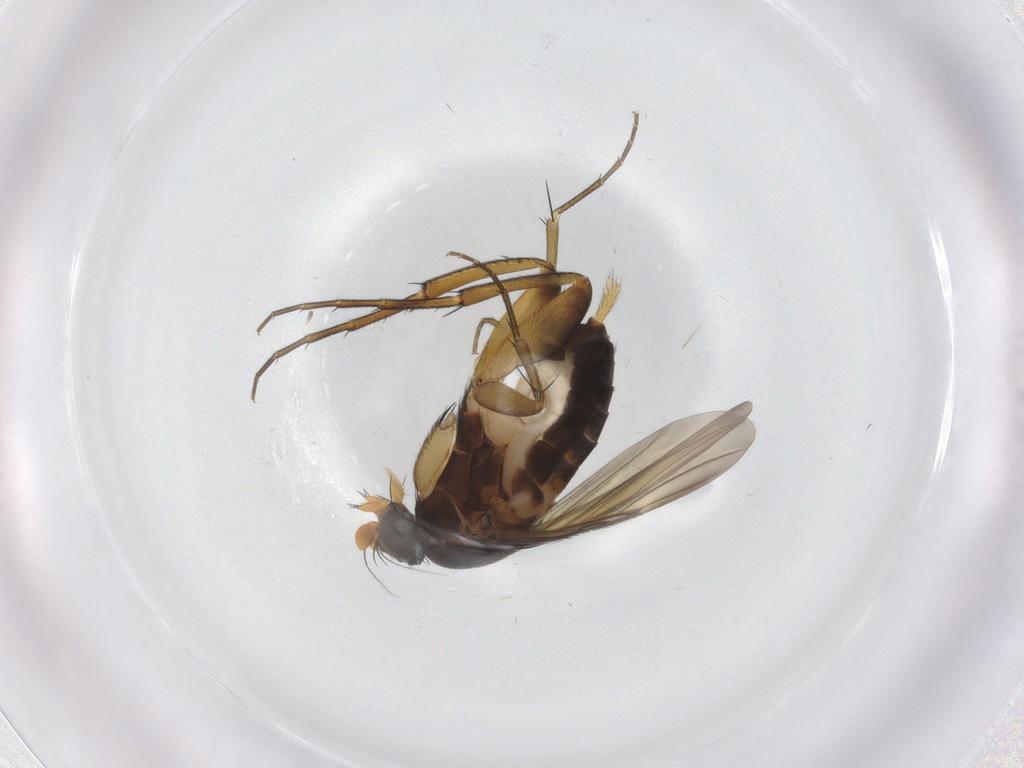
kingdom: Animalia
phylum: Arthropoda
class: Insecta
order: Diptera
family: Phoridae
